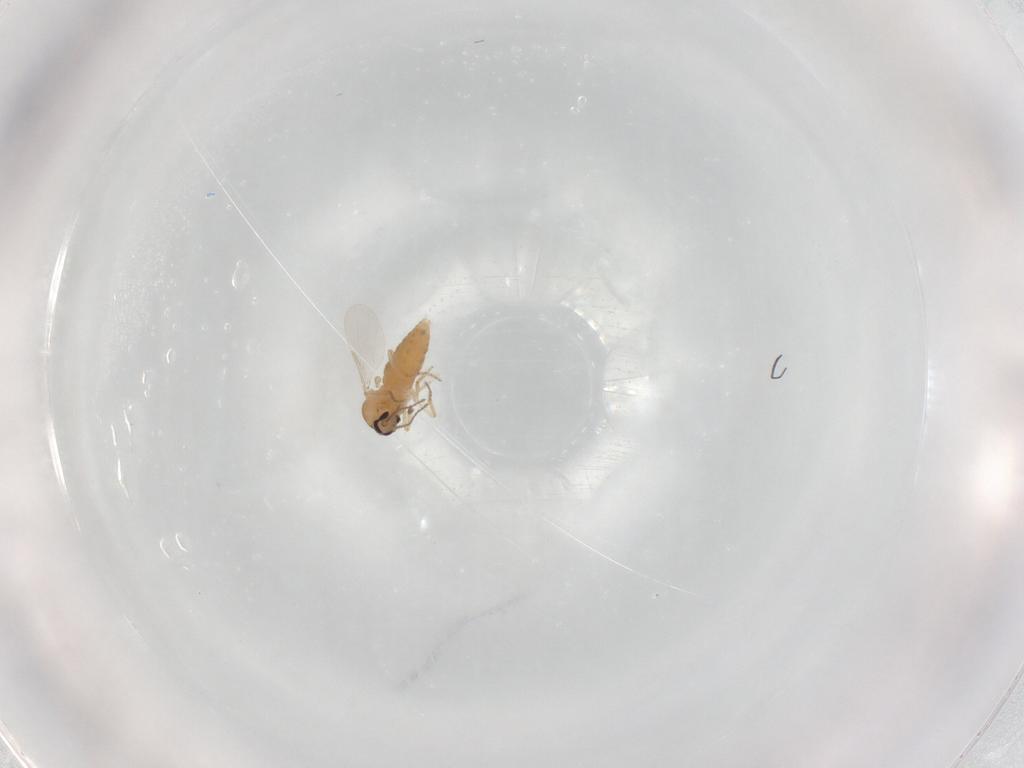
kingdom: Animalia
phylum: Arthropoda
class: Insecta
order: Diptera
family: Ceratopogonidae
